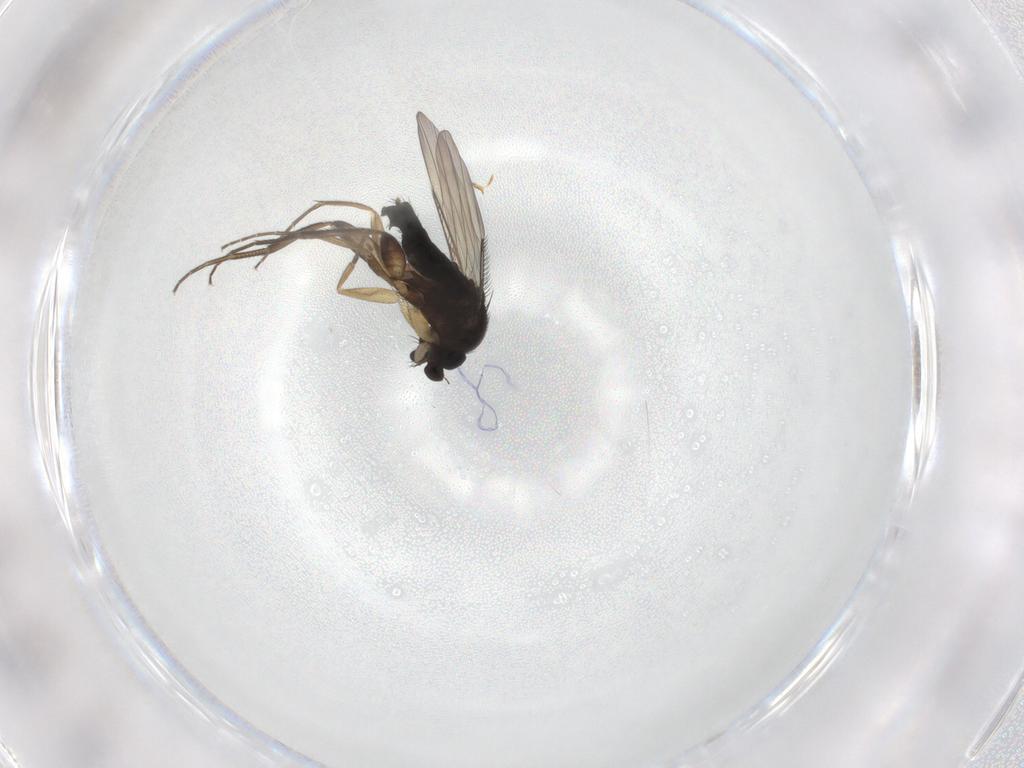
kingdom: Animalia
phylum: Arthropoda
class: Insecta
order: Diptera
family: Phoridae
